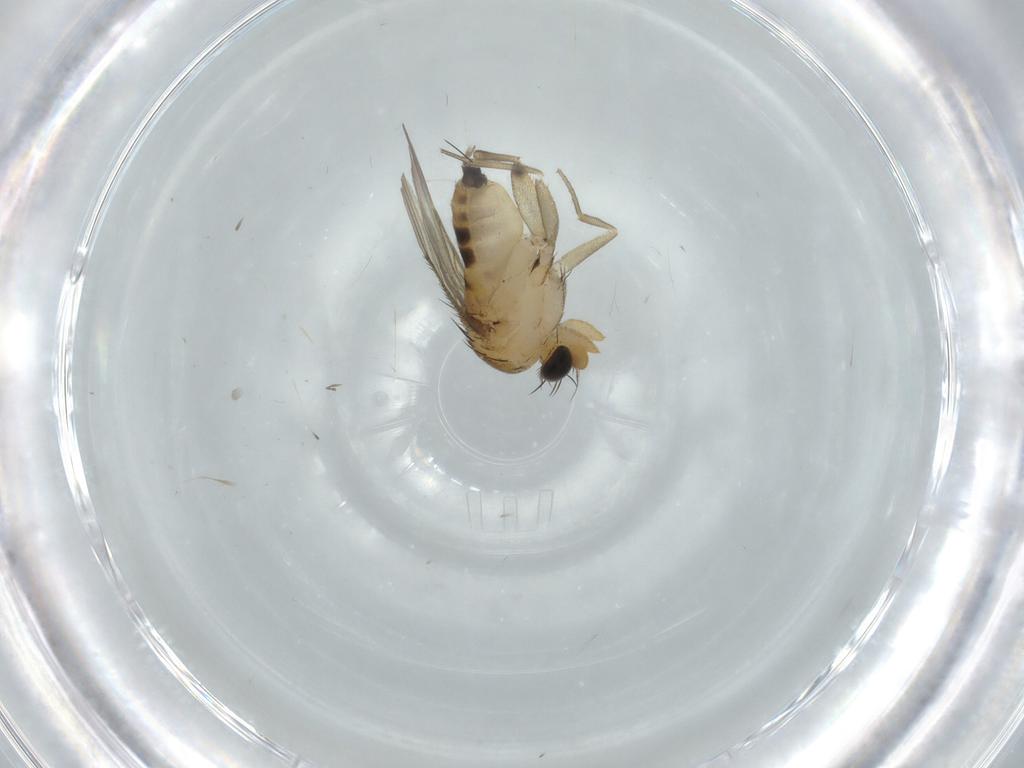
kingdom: Animalia
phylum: Arthropoda
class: Insecta
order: Diptera
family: Phoridae
